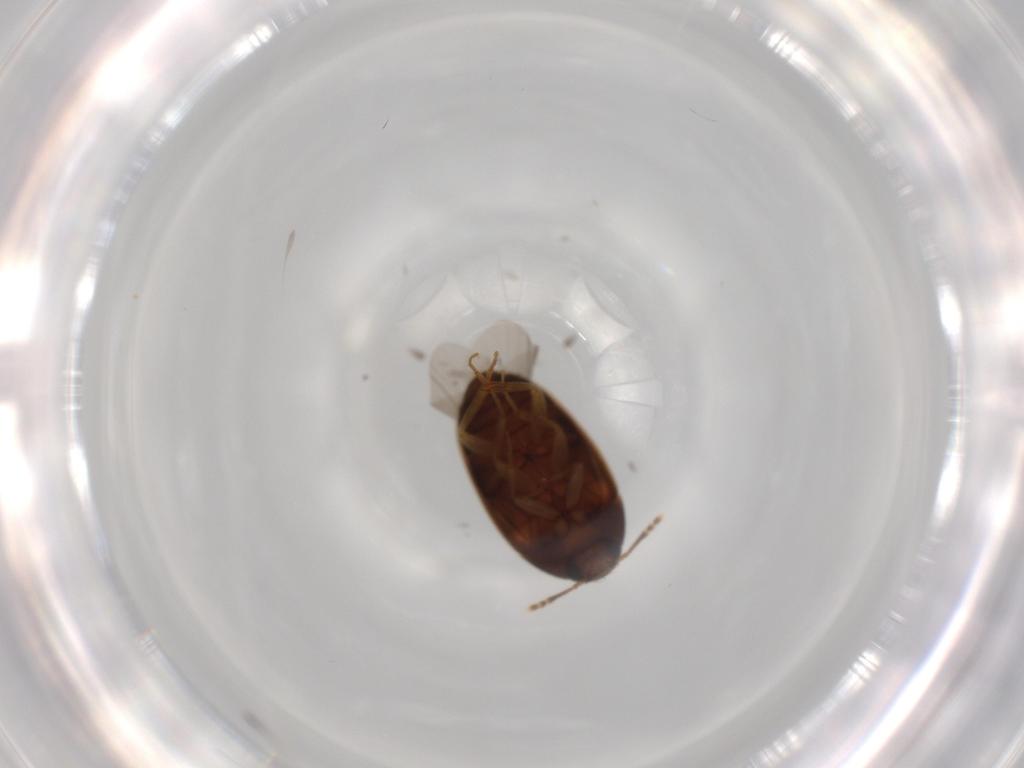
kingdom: Animalia
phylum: Arthropoda
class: Insecta
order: Coleoptera
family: Mycetophagidae
